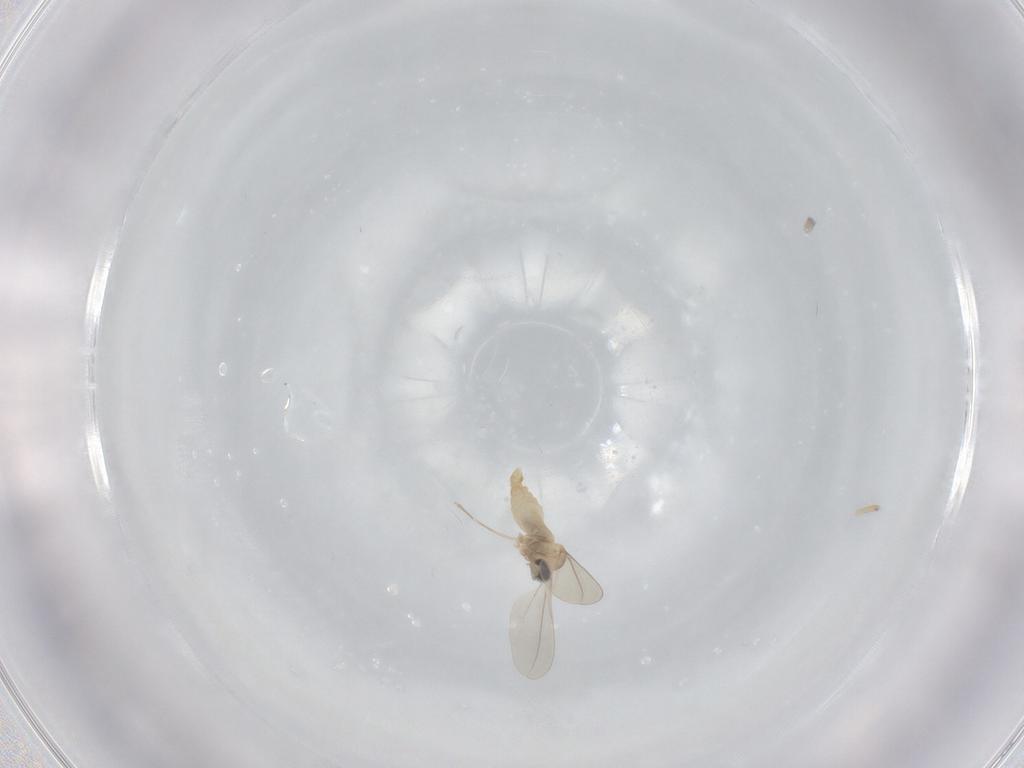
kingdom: Animalia
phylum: Arthropoda
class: Insecta
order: Diptera
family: Cecidomyiidae
